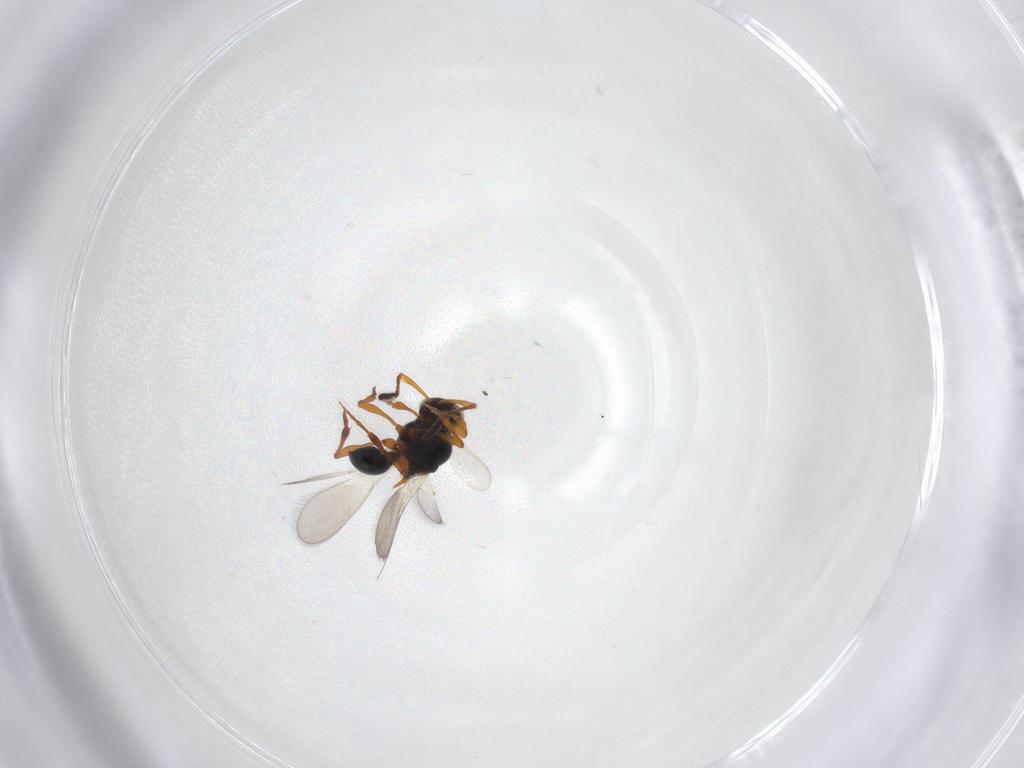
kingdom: Animalia
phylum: Arthropoda
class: Insecta
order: Hymenoptera
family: Platygastridae
